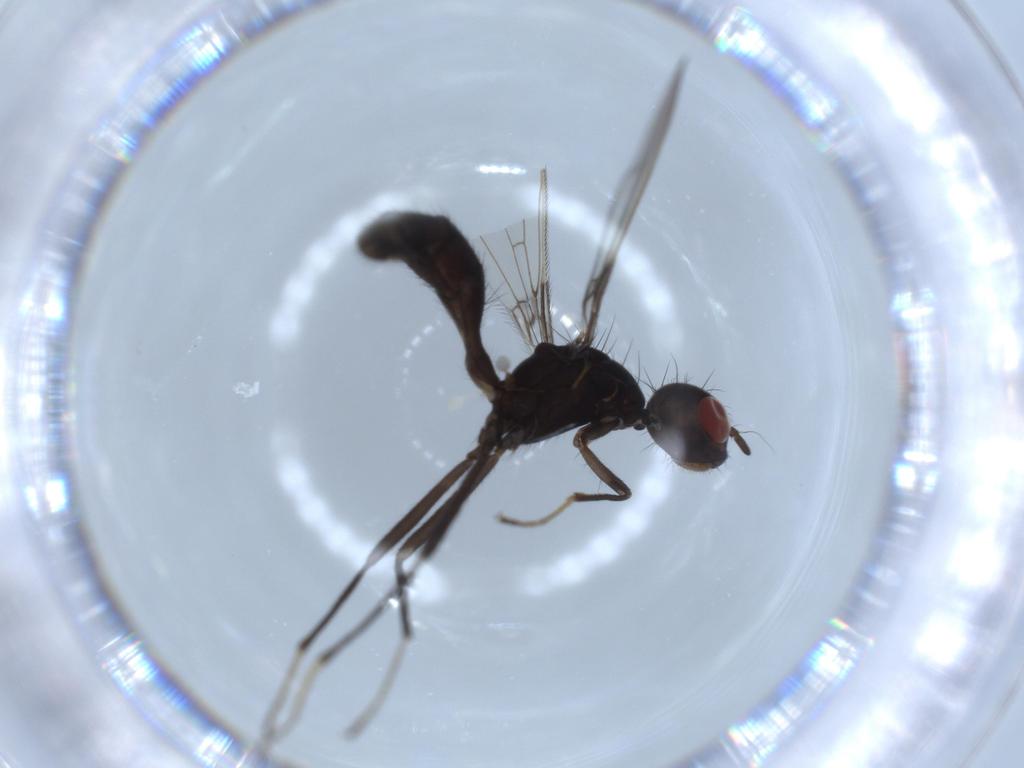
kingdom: Animalia
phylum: Arthropoda
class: Insecta
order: Diptera
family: Richardiidae
